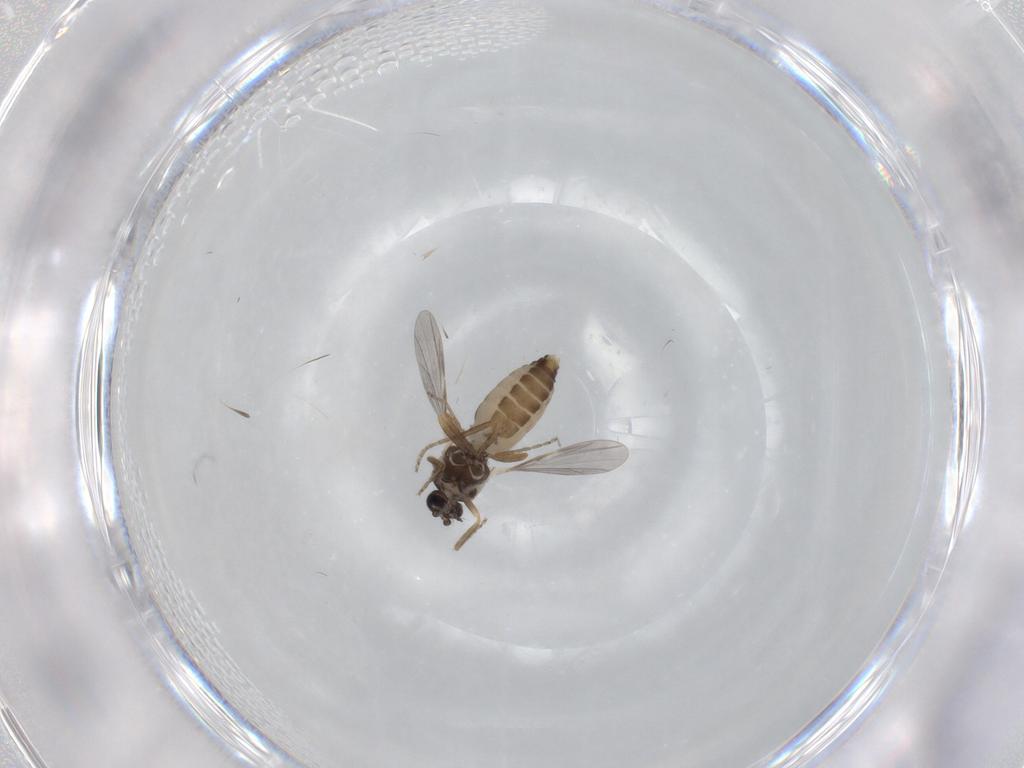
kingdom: Animalia
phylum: Arthropoda
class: Insecta
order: Diptera
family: Ceratopogonidae
